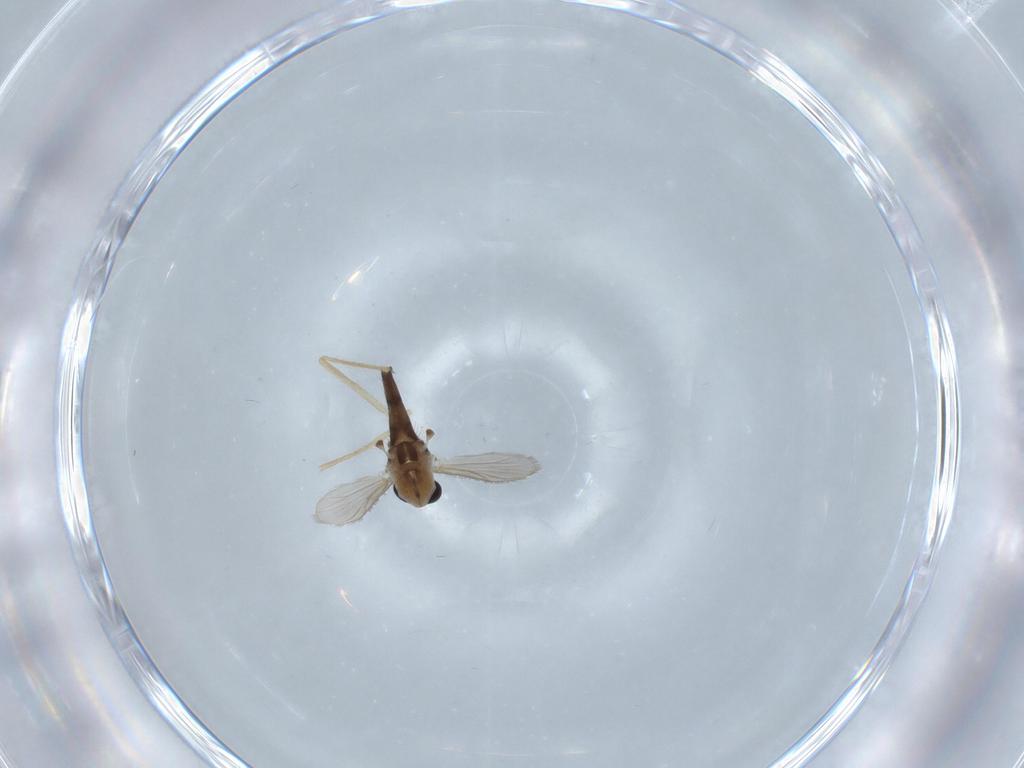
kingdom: Animalia
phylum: Arthropoda
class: Insecta
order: Diptera
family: Chironomidae
